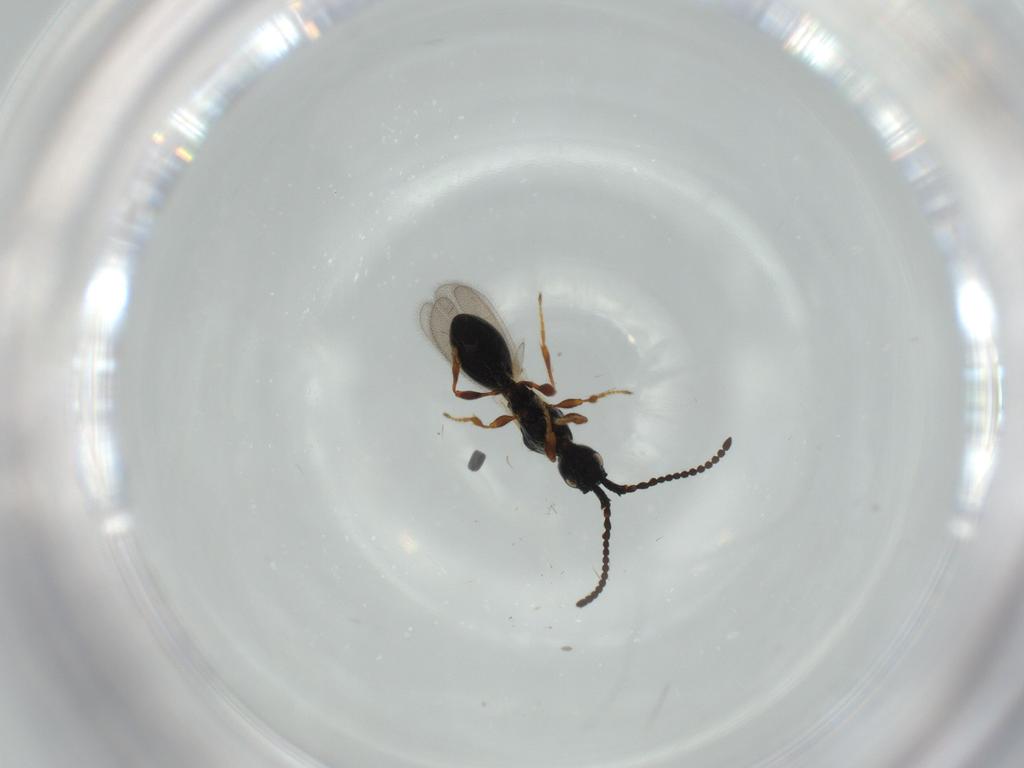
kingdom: Animalia
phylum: Arthropoda
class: Insecta
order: Hymenoptera
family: Diapriidae
